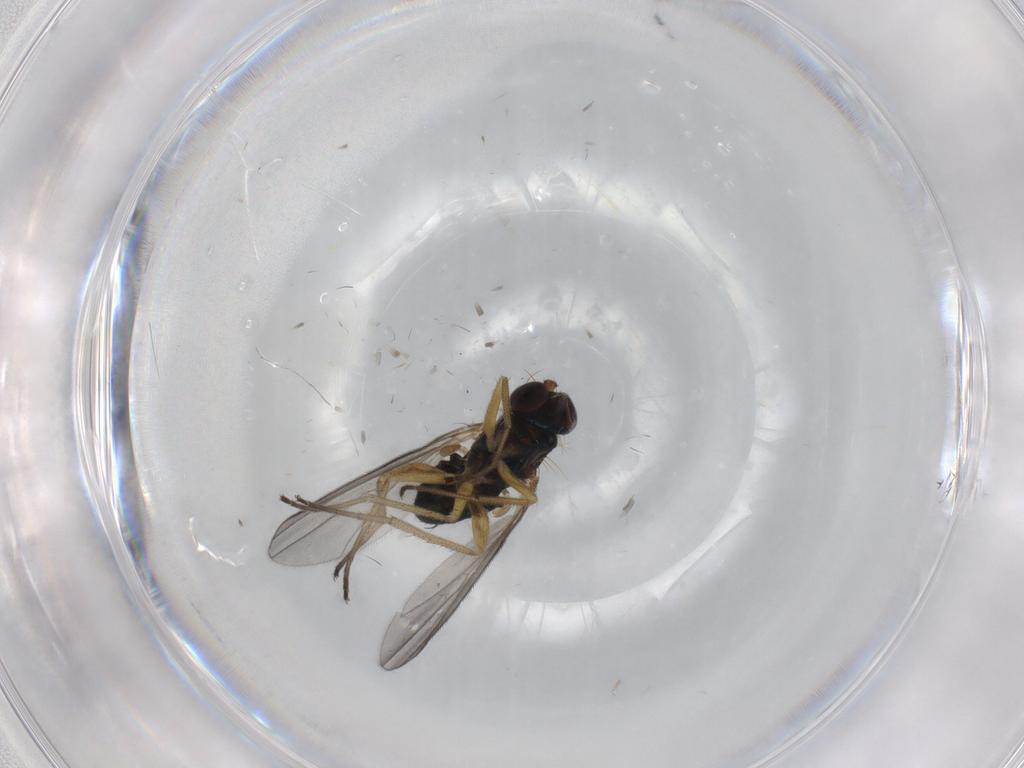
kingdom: Animalia
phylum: Arthropoda
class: Insecta
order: Diptera
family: Dolichopodidae
